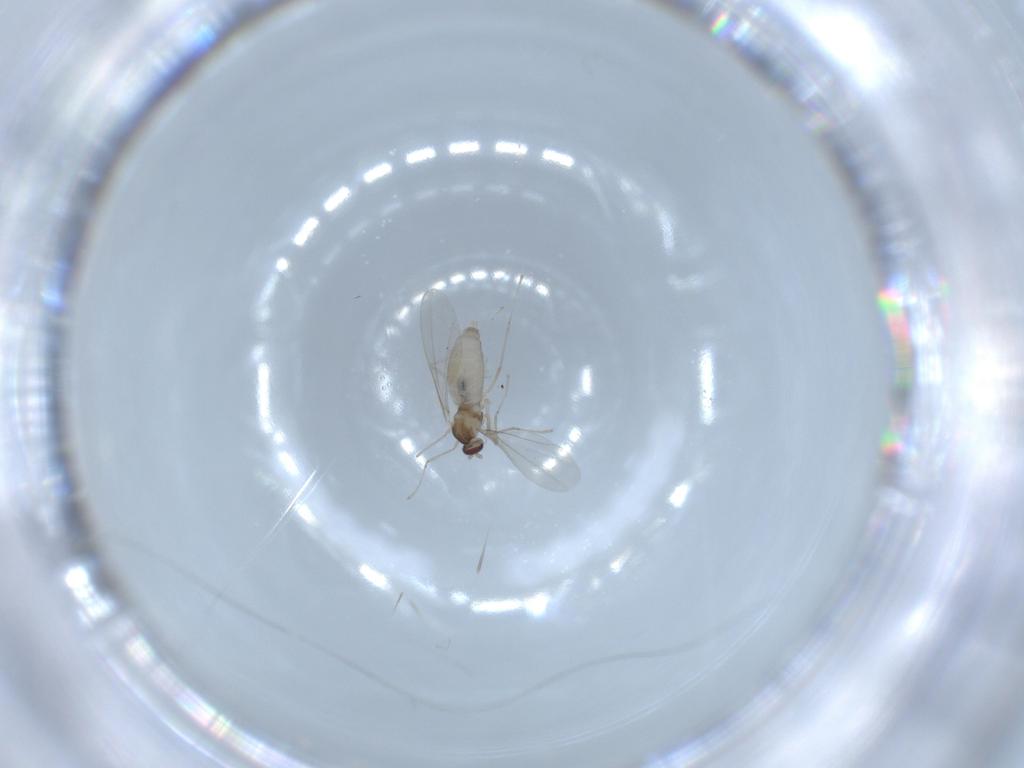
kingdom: Animalia
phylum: Arthropoda
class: Insecta
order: Diptera
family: Cecidomyiidae
